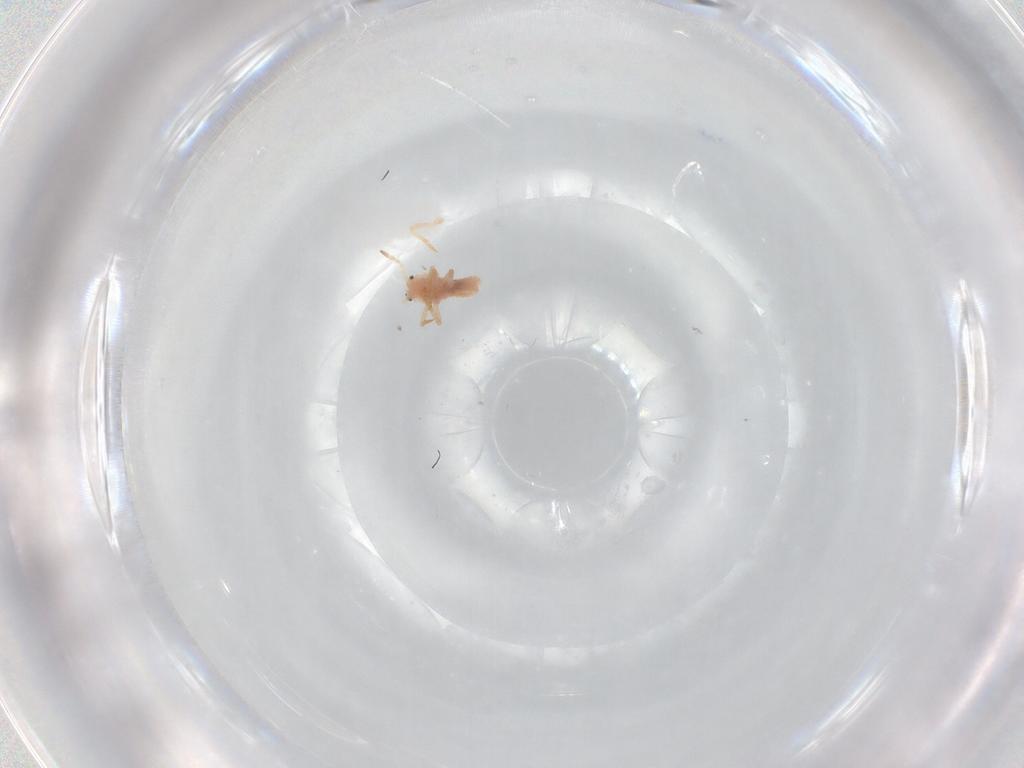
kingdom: Animalia
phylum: Arthropoda
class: Insecta
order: Hemiptera
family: Coccoidea_incertae_sedis
